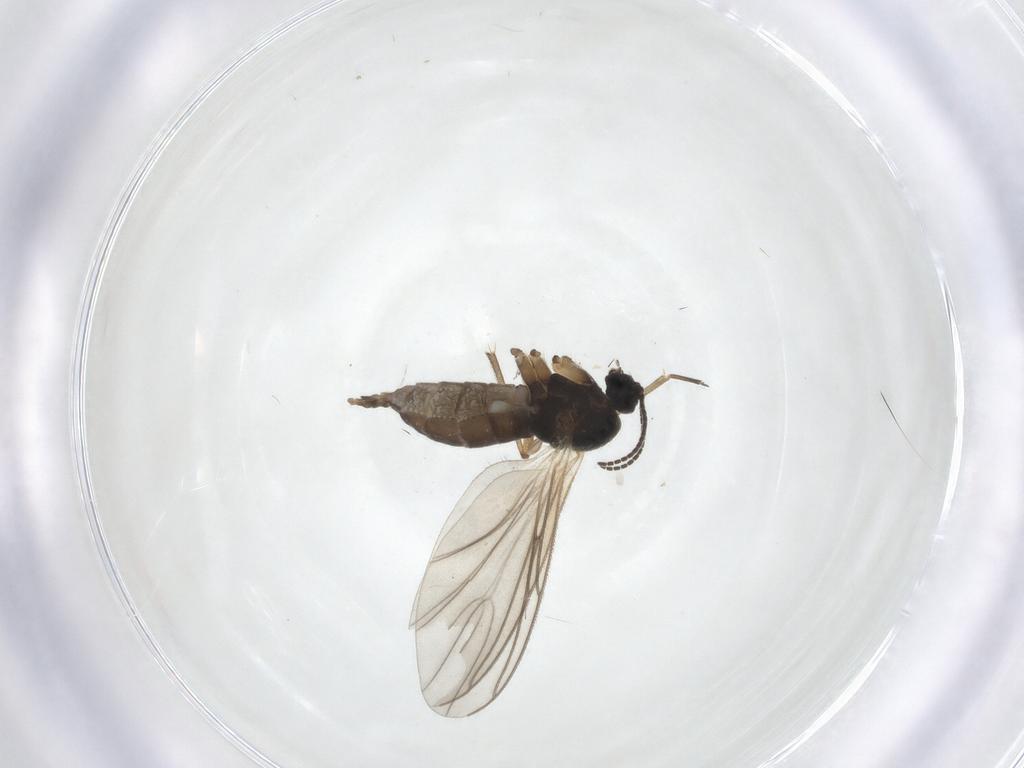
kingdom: Animalia
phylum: Arthropoda
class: Insecta
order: Diptera
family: Sciaridae
